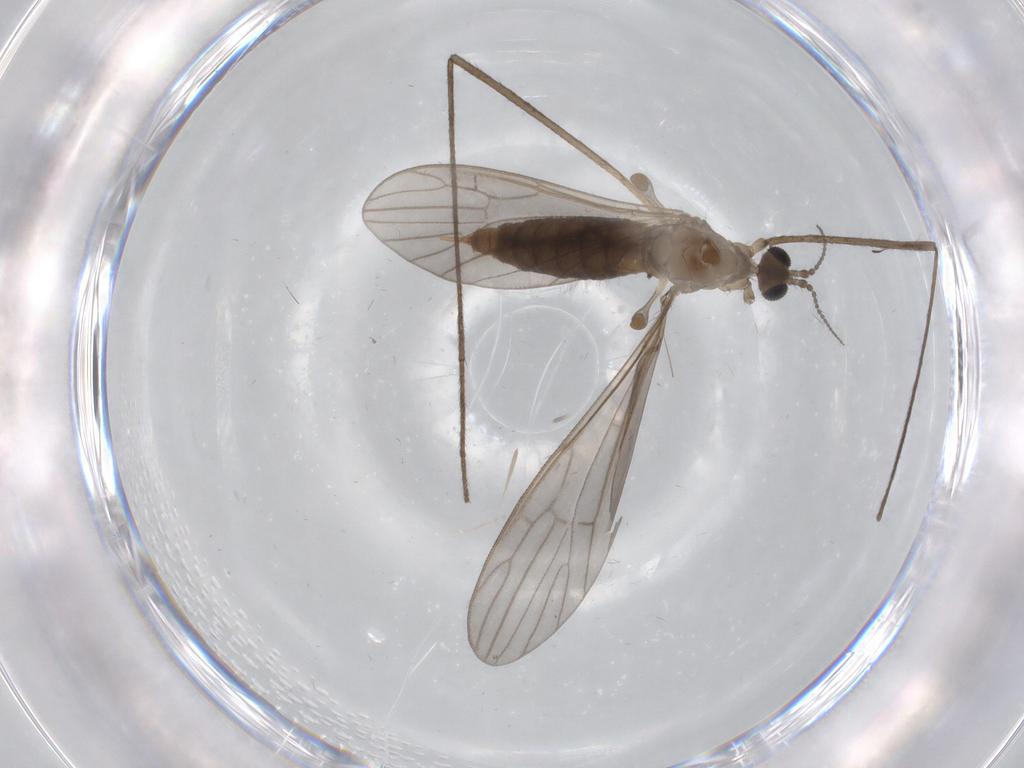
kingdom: Animalia
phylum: Arthropoda
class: Insecta
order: Diptera
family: Limoniidae
